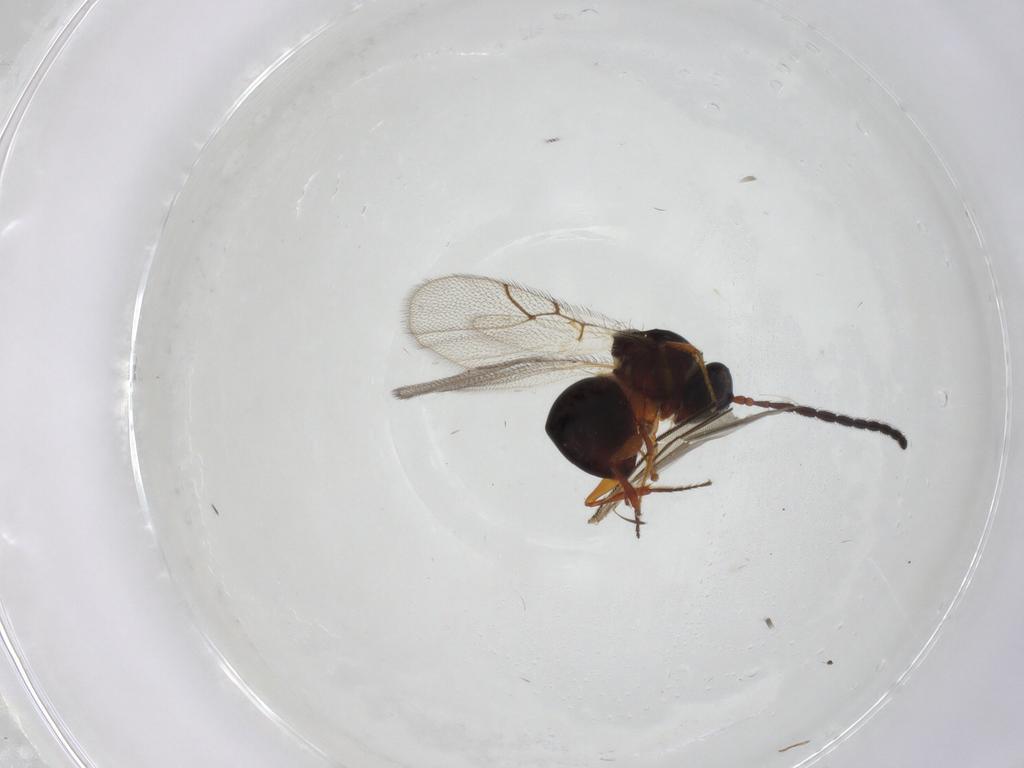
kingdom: Animalia
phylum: Arthropoda
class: Insecta
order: Hymenoptera
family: Figitidae
